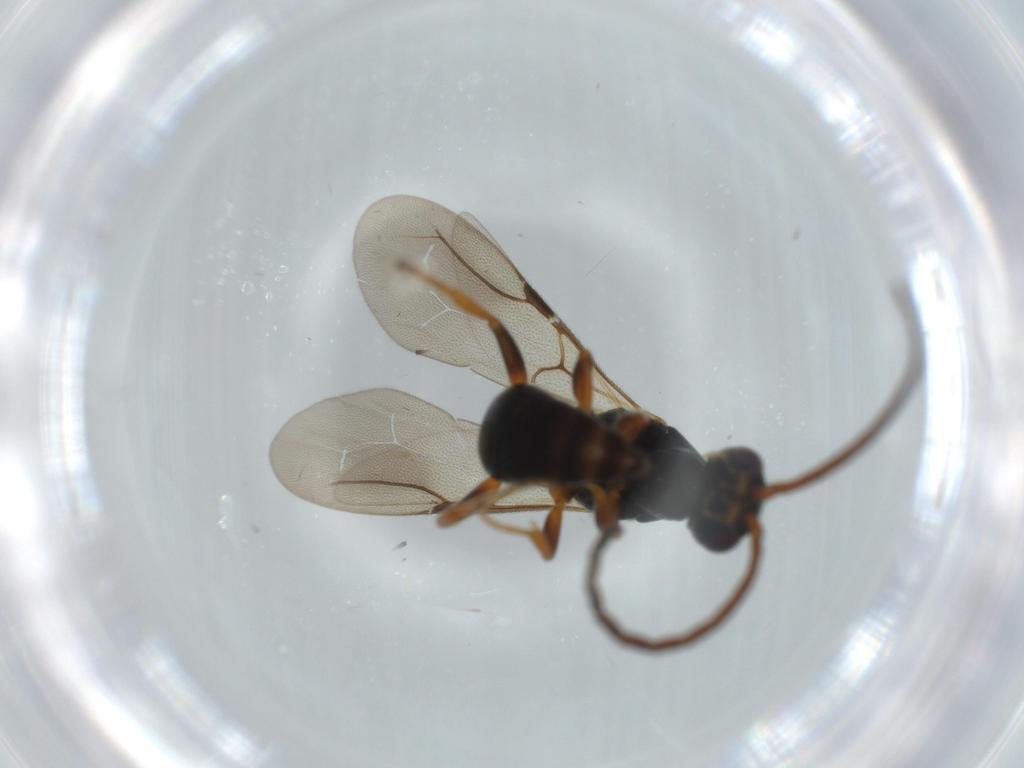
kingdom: Animalia
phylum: Arthropoda
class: Insecta
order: Hymenoptera
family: Bethylidae
